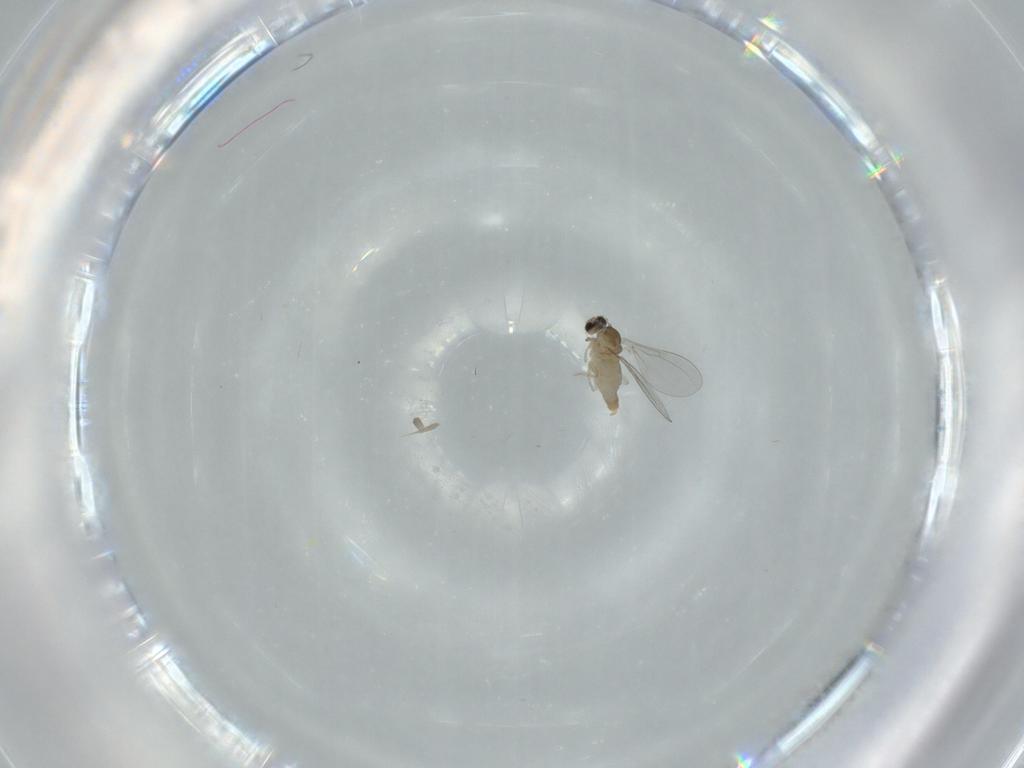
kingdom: Animalia
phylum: Arthropoda
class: Insecta
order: Diptera
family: Cecidomyiidae
